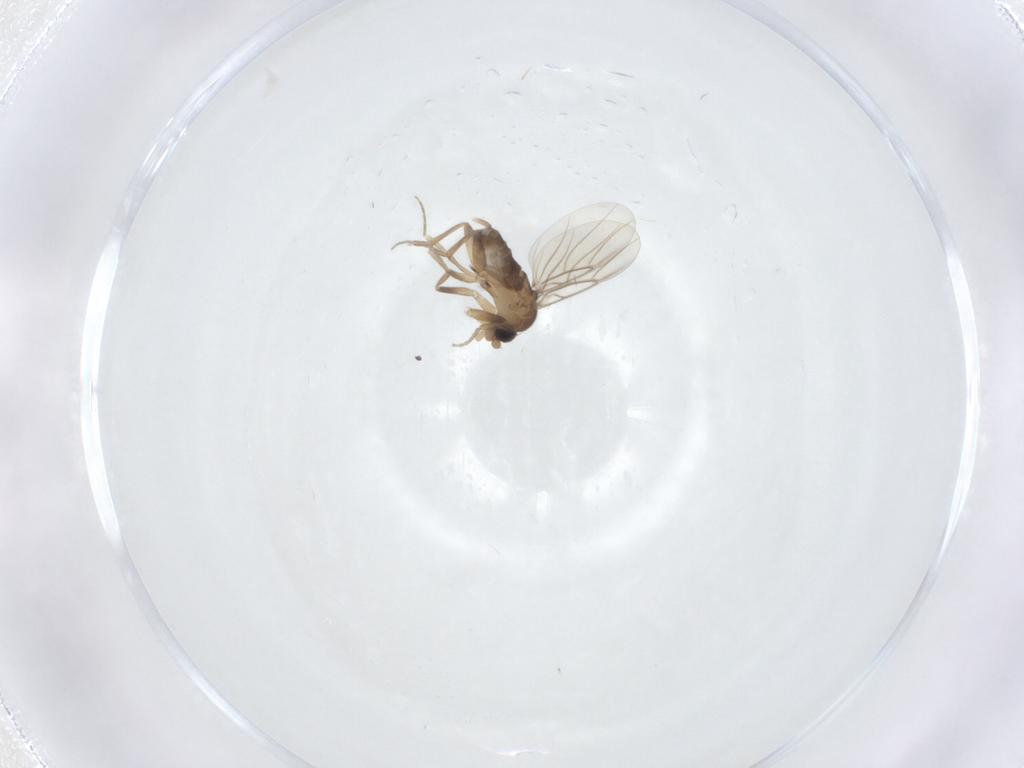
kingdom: Animalia
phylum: Arthropoda
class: Insecta
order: Diptera
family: Phoridae
